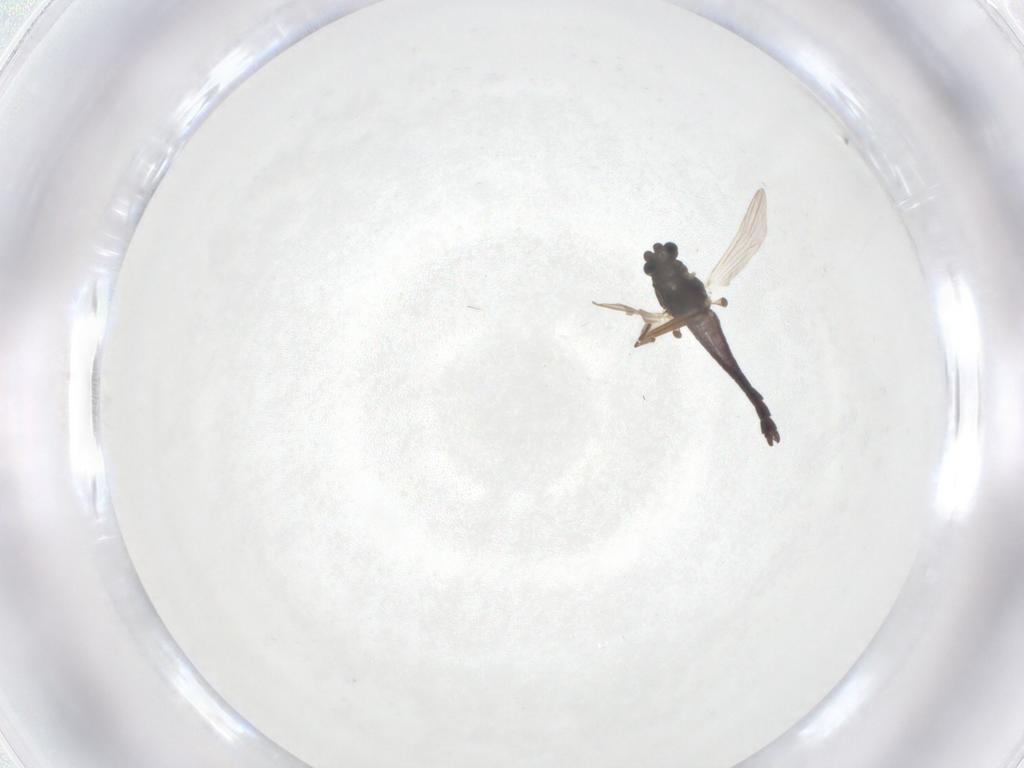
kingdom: Animalia
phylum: Arthropoda
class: Insecta
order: Diptera
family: Chironomidae
